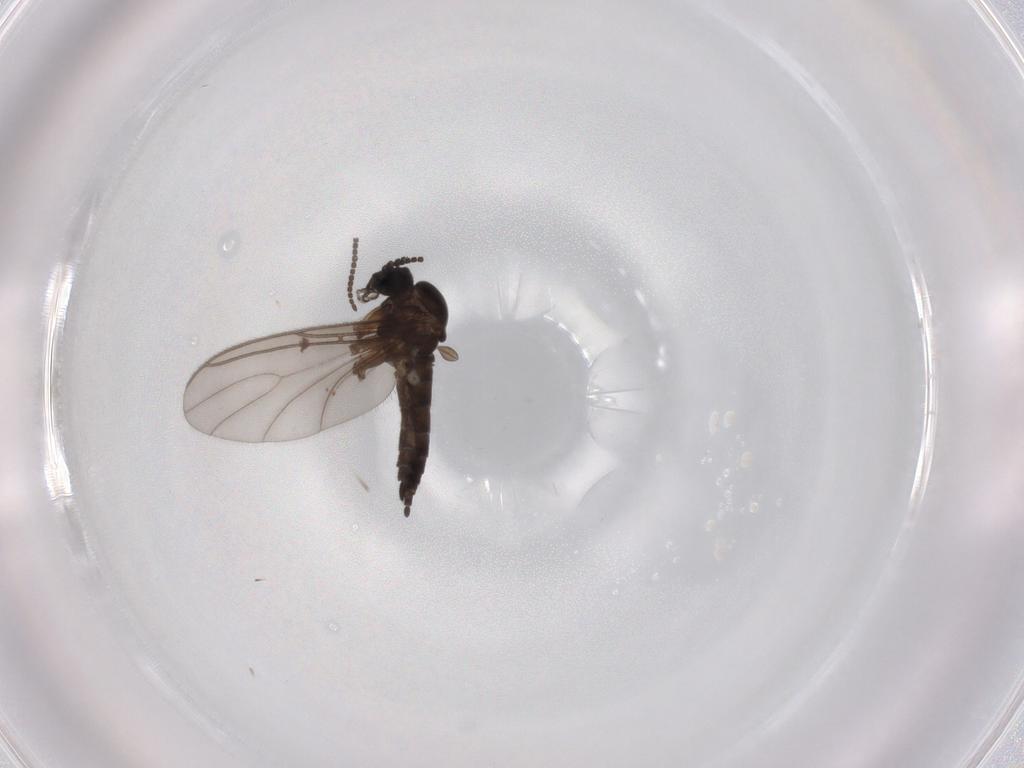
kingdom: Animalia
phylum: Arthropoda
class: Insecta
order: Diptera
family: Sciaridae
